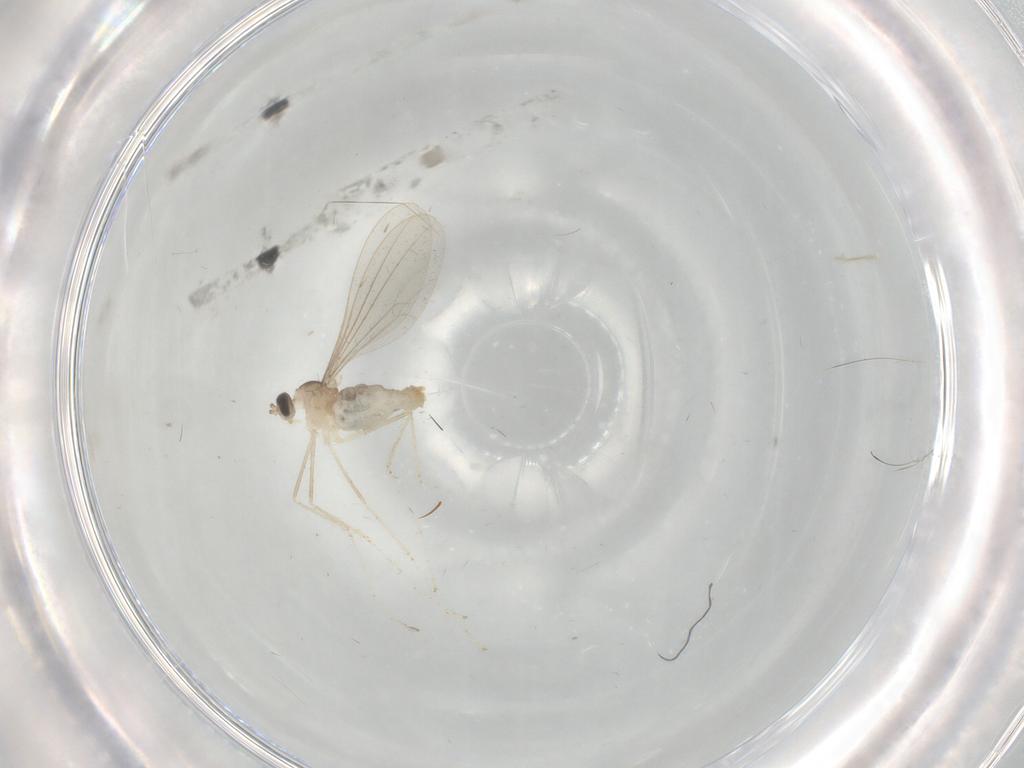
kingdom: Animalia
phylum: Arthropoda
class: Insecta
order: Diptera
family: Cecidomyiidae
